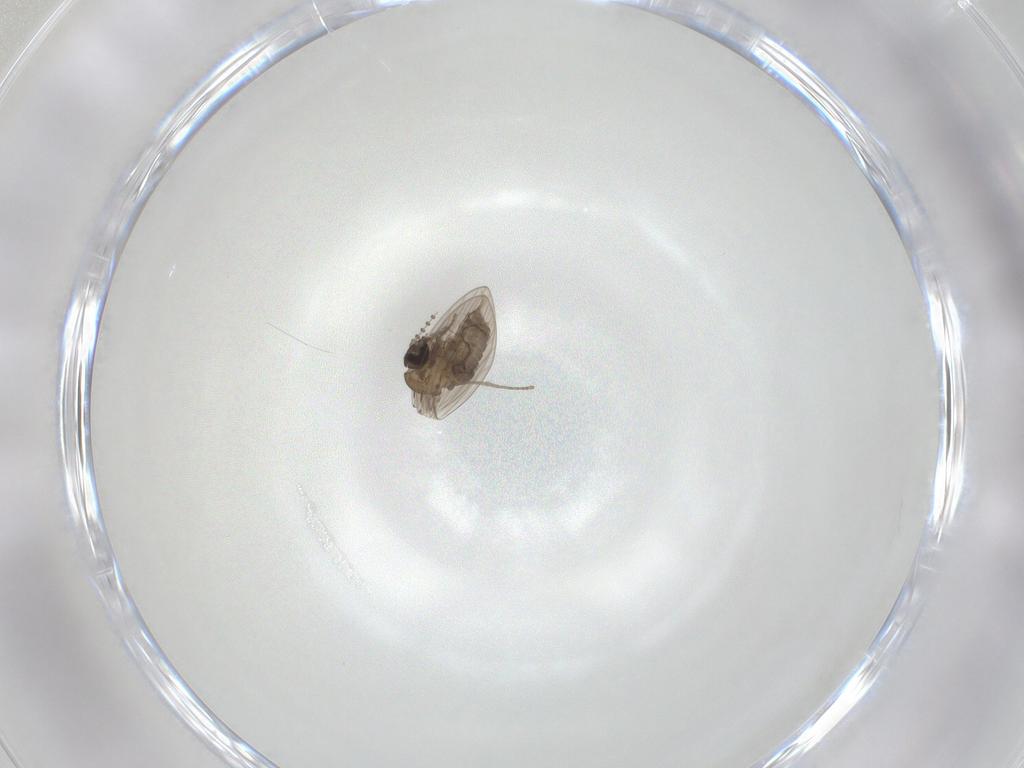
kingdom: Animalia
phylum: Arthropoda
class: Insecta
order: Diptera
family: Psychodidae
